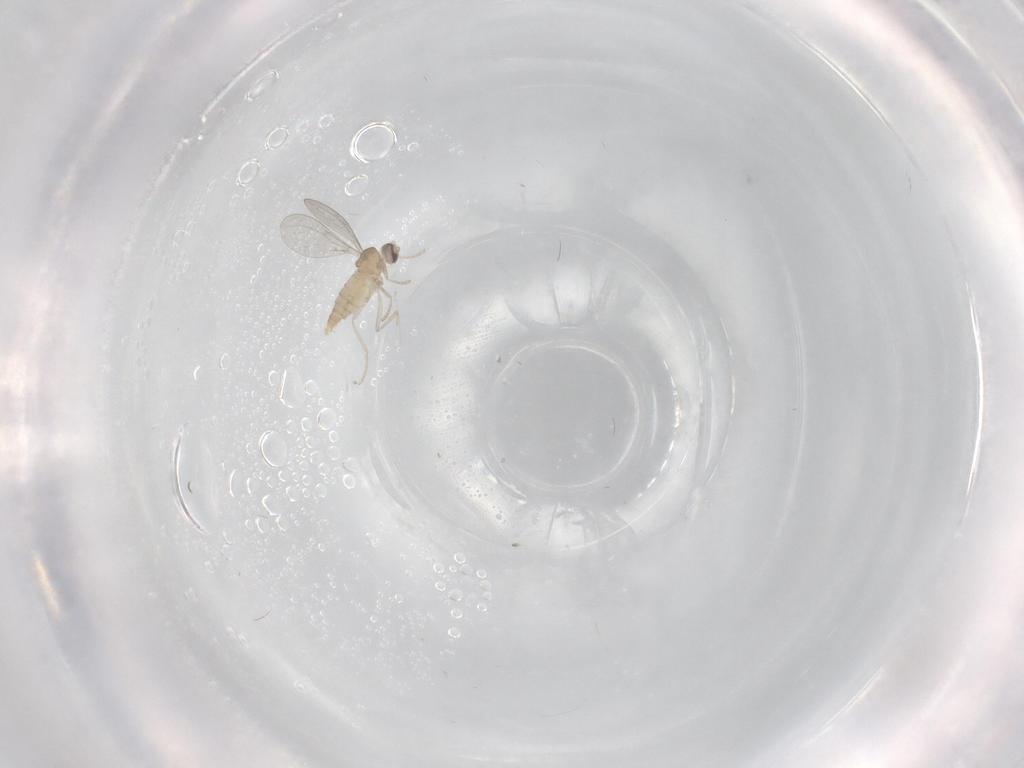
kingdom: Animalia
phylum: Arthropoda
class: Insecta
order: Diptera
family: Cecidomyiidae
